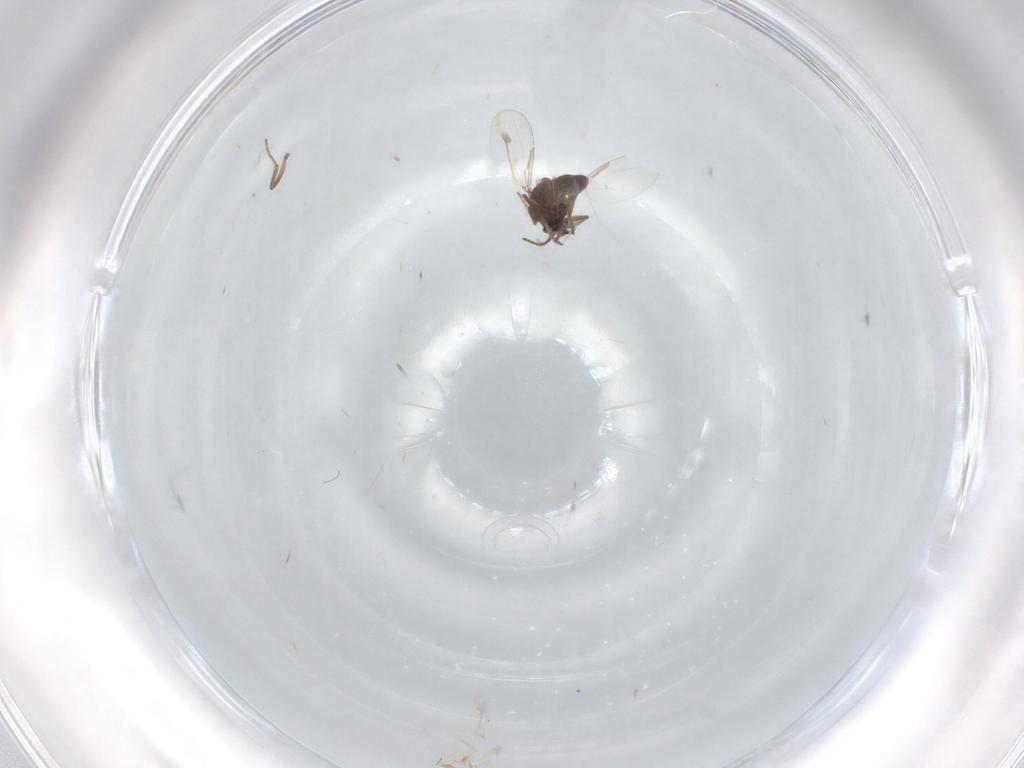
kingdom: Animalia
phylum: Arthropoda
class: Insecta
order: Diptera
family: Ceratopogonidae
